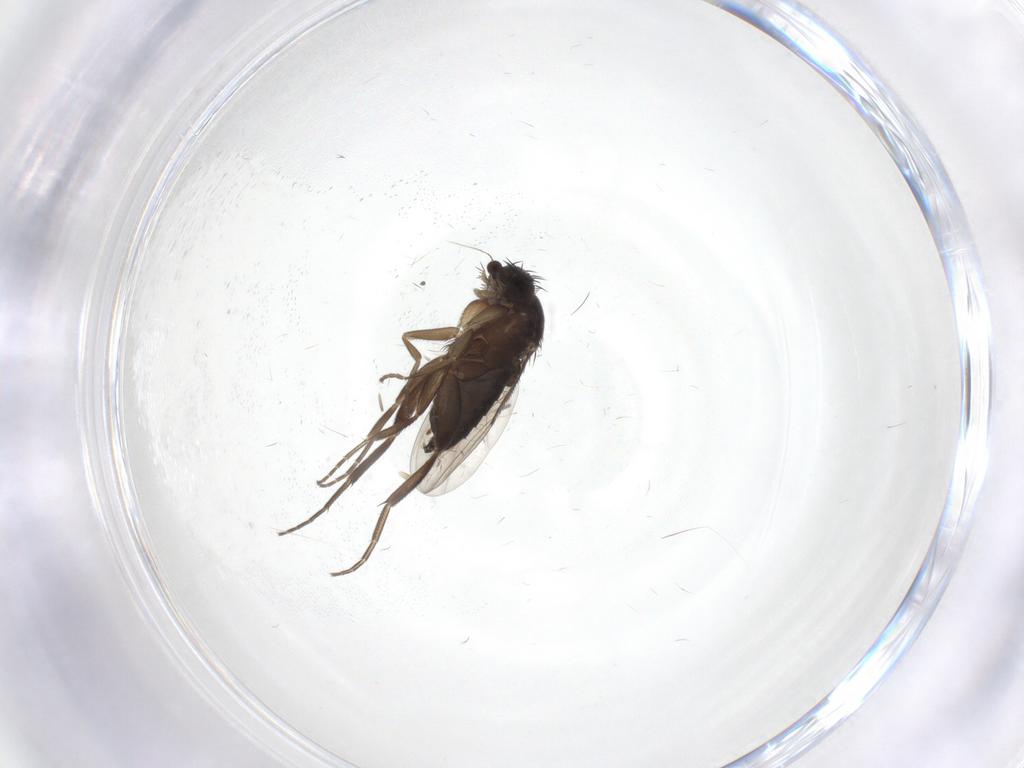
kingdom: Animalia
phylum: Arthropoda
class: Insecta
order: Diptera
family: Phoridae
